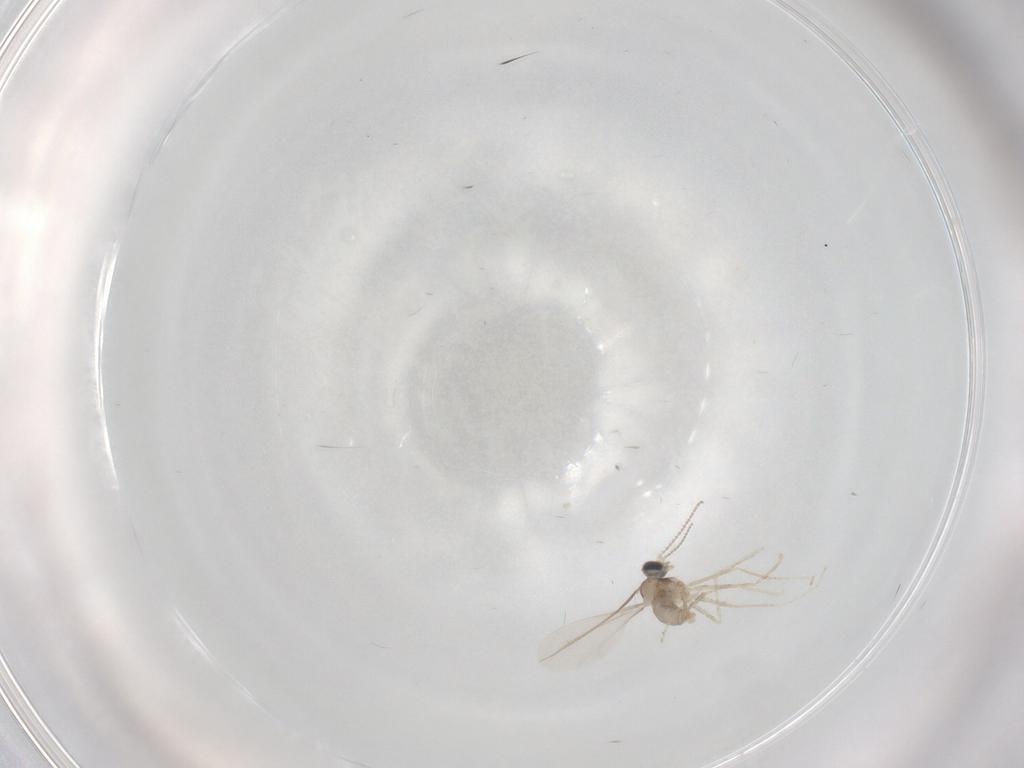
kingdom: Animalia
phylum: Arthropoda
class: Insecta
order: Diptera
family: Cecidomyiidae
